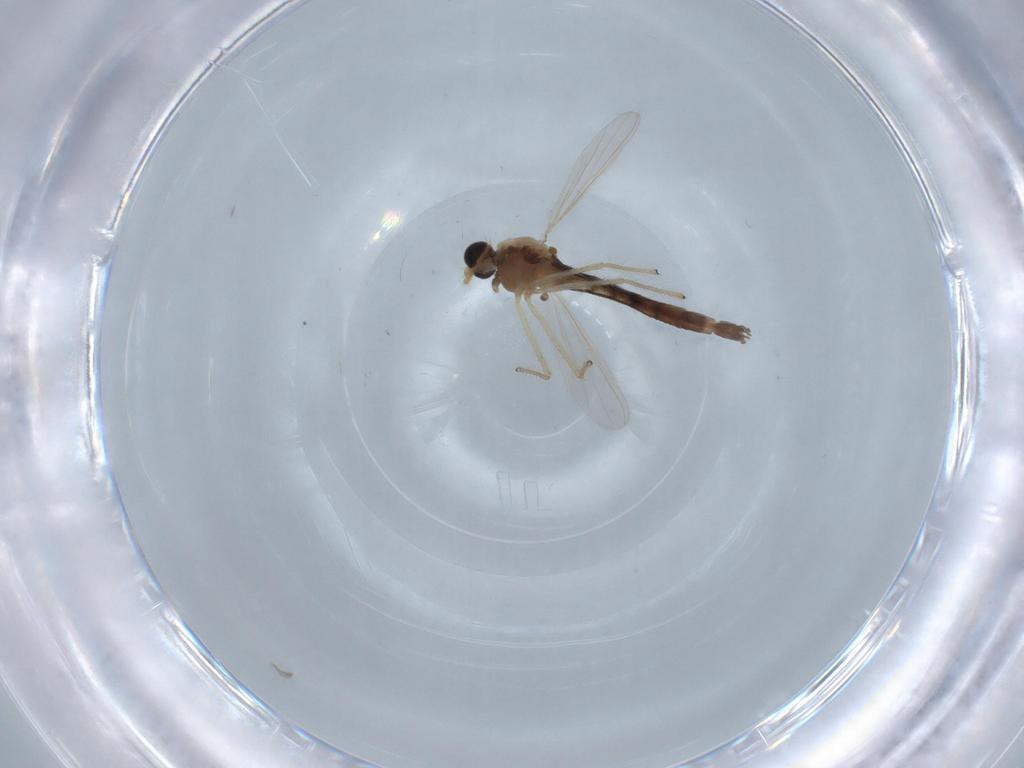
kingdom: Animalia
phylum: Arthropoda
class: Insecta
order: Diptera
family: Chironomidae
